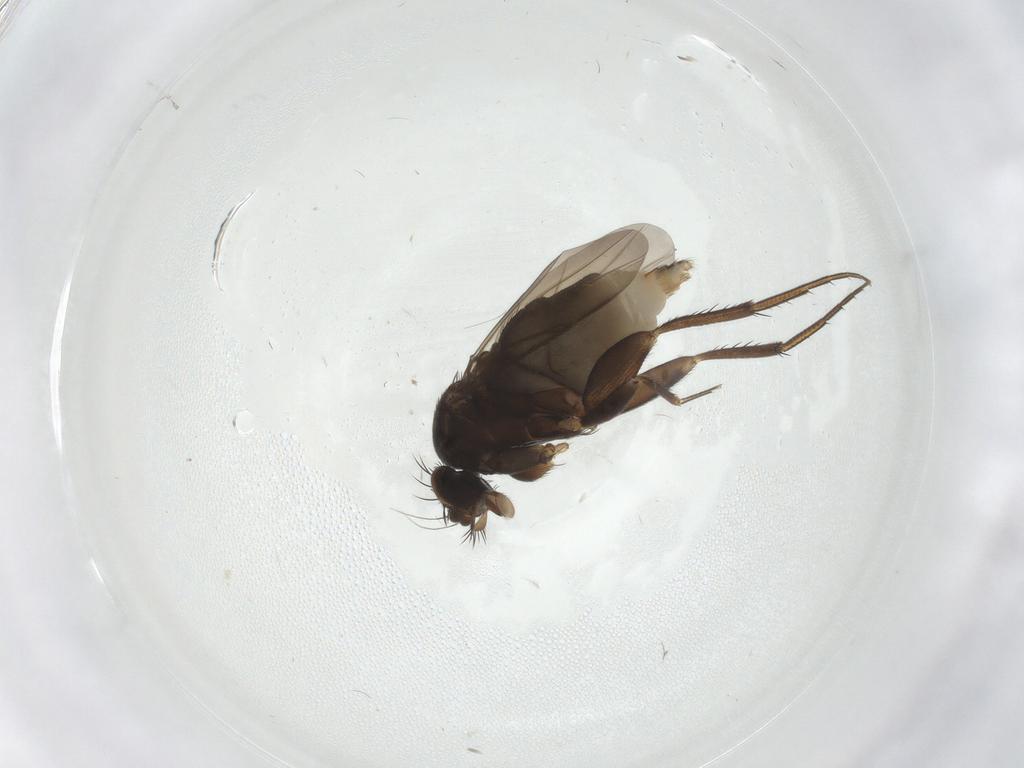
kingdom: Animalia
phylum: Arthropoda
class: Insecta
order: Diptera
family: Phoridae
